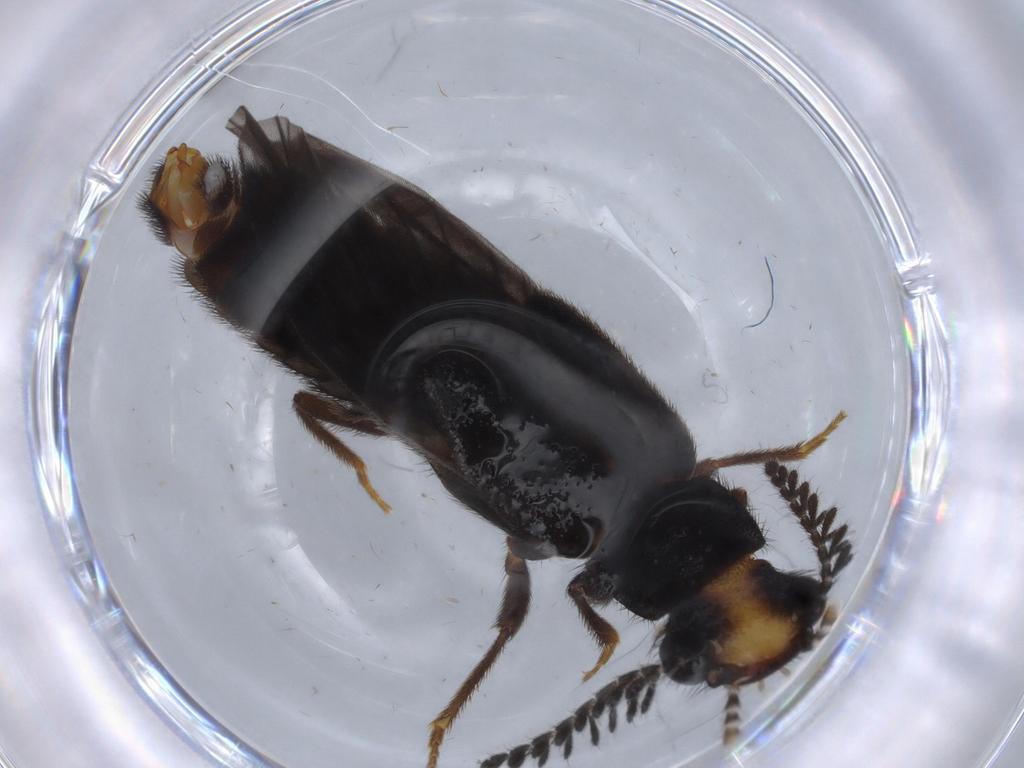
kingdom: Animalia
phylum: Arthropoda
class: Insecta
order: Coleoptera
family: Phengodidae
